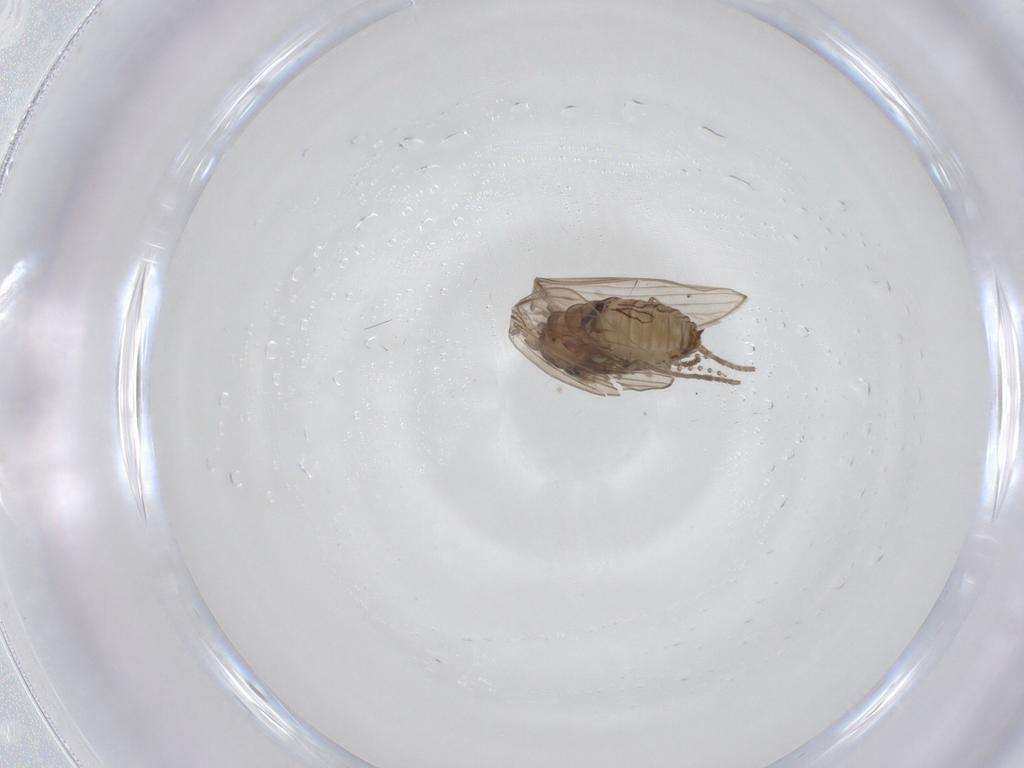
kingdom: Animalia
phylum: Arthropoda
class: Insecta
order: Diptera
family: Psychodidae
